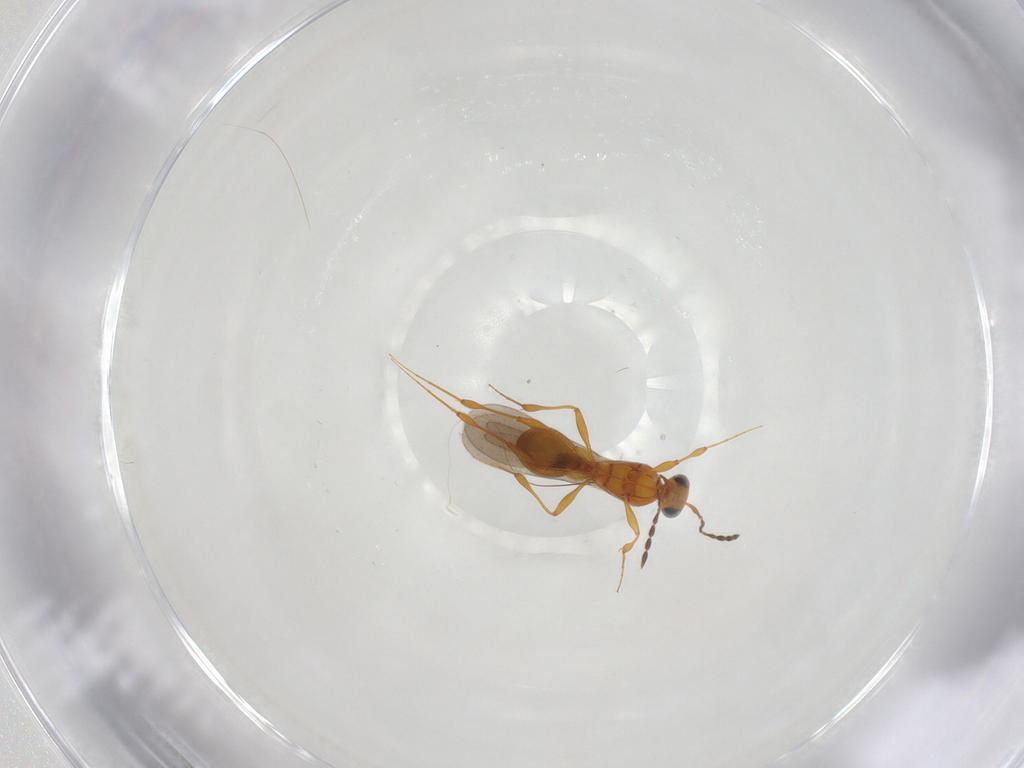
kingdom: Animalia
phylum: Arthropoda
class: Insecta
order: Hymenoptera
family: Platygastridae
